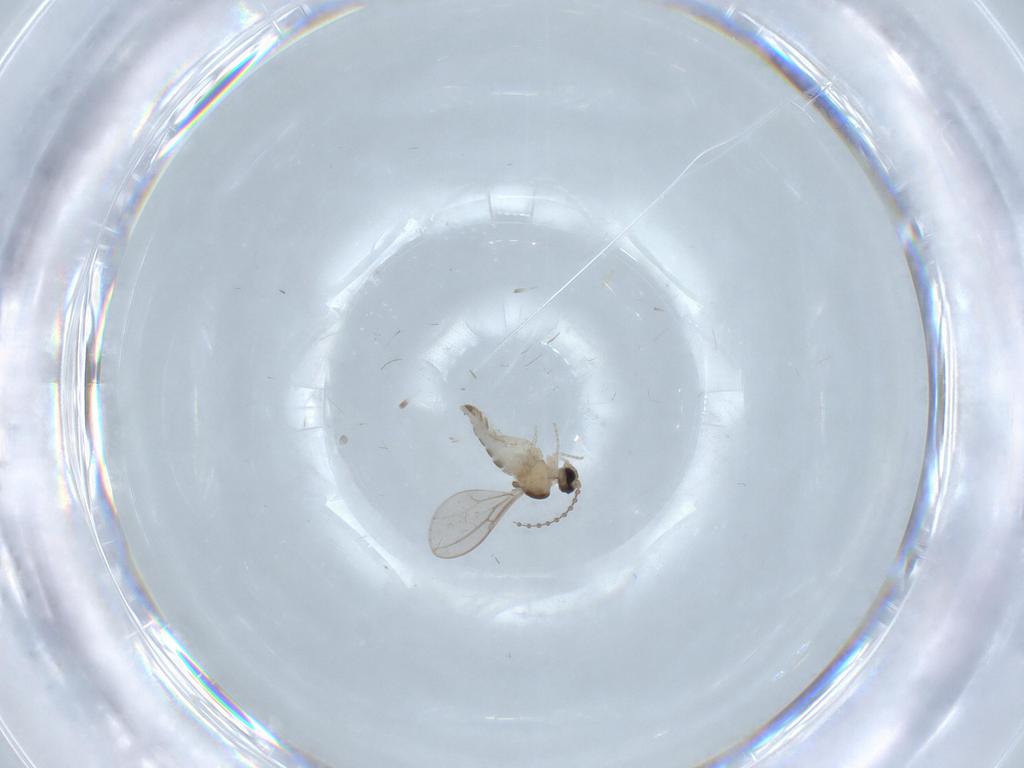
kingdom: Animalia
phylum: Arthropoda
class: Insecta
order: Diptera
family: Cecidomyiidae
